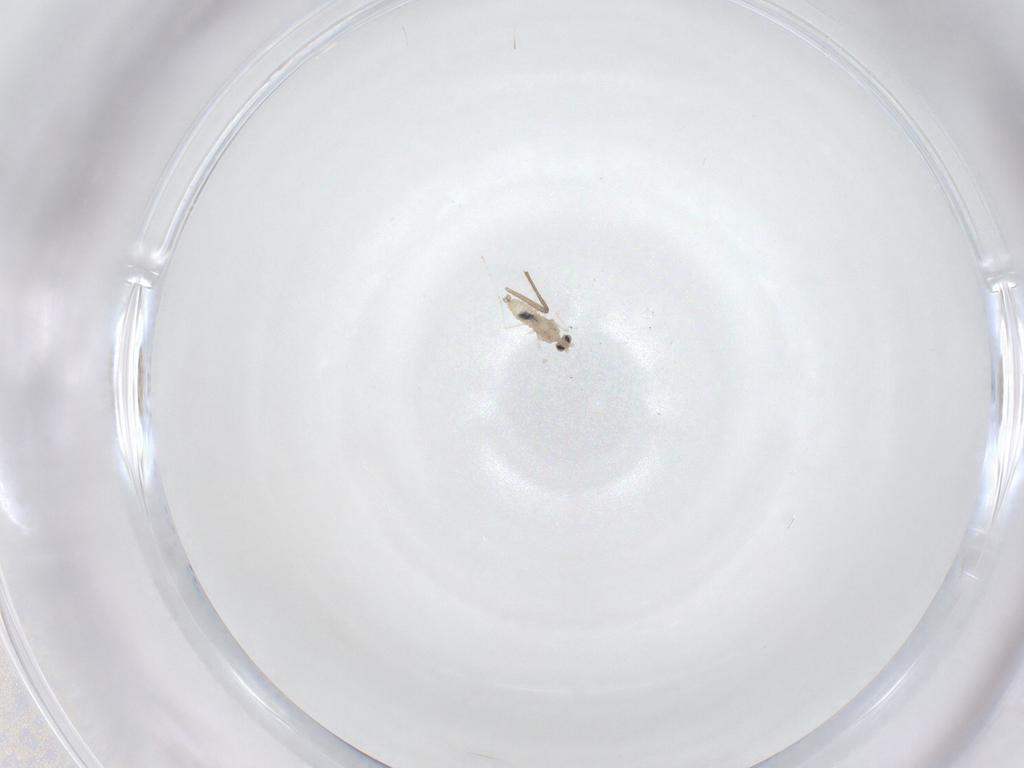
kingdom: Animalia
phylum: Arthropoda
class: Insecta
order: Diptera
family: Cecidomyiidae
